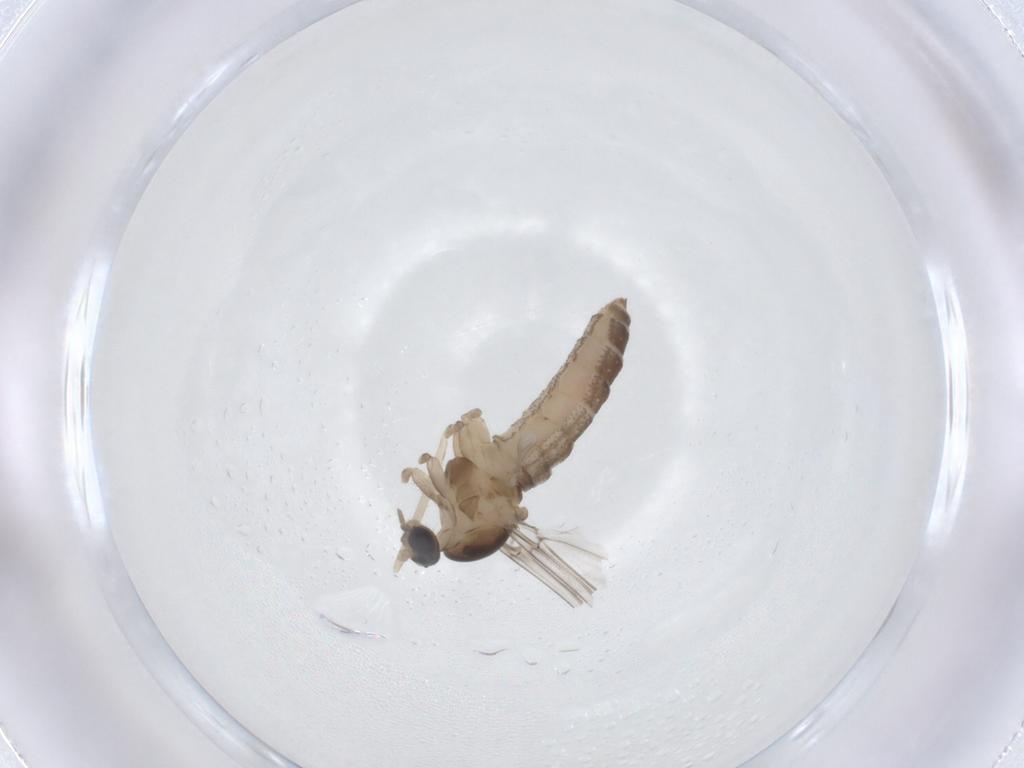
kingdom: Animalia
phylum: Arthropoda
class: Insecta
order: Diptera
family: Cecidomyiidae
